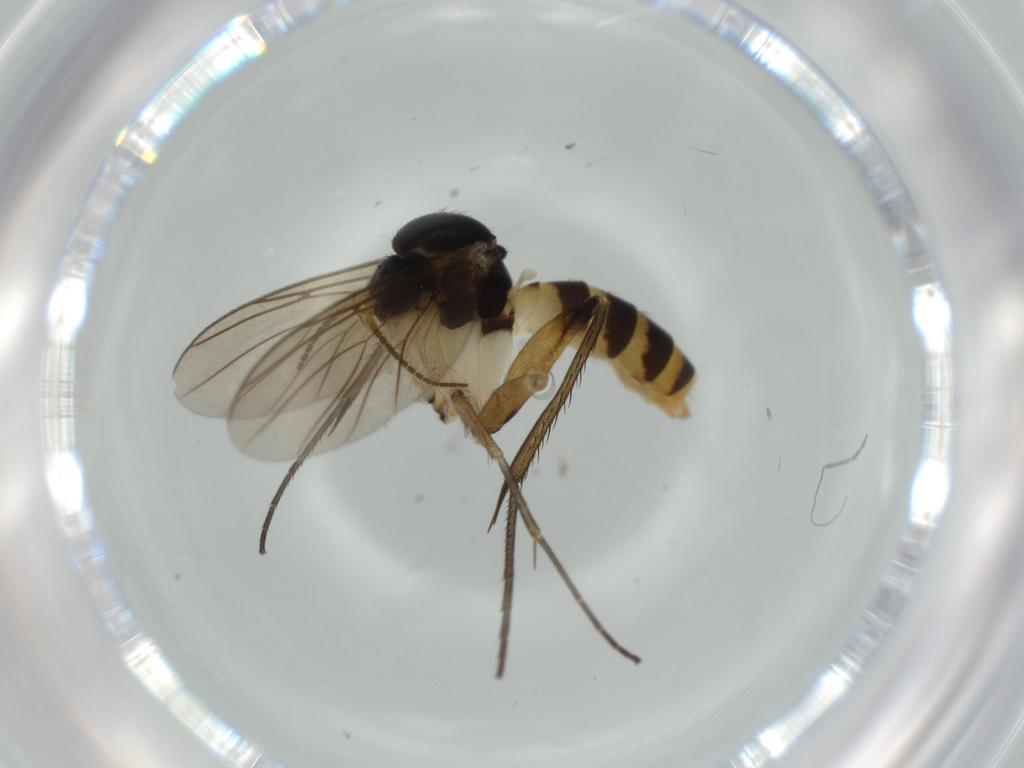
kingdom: Animalia
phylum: Arthropoda
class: Insecta
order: Diptera
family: Mycetophilidae
